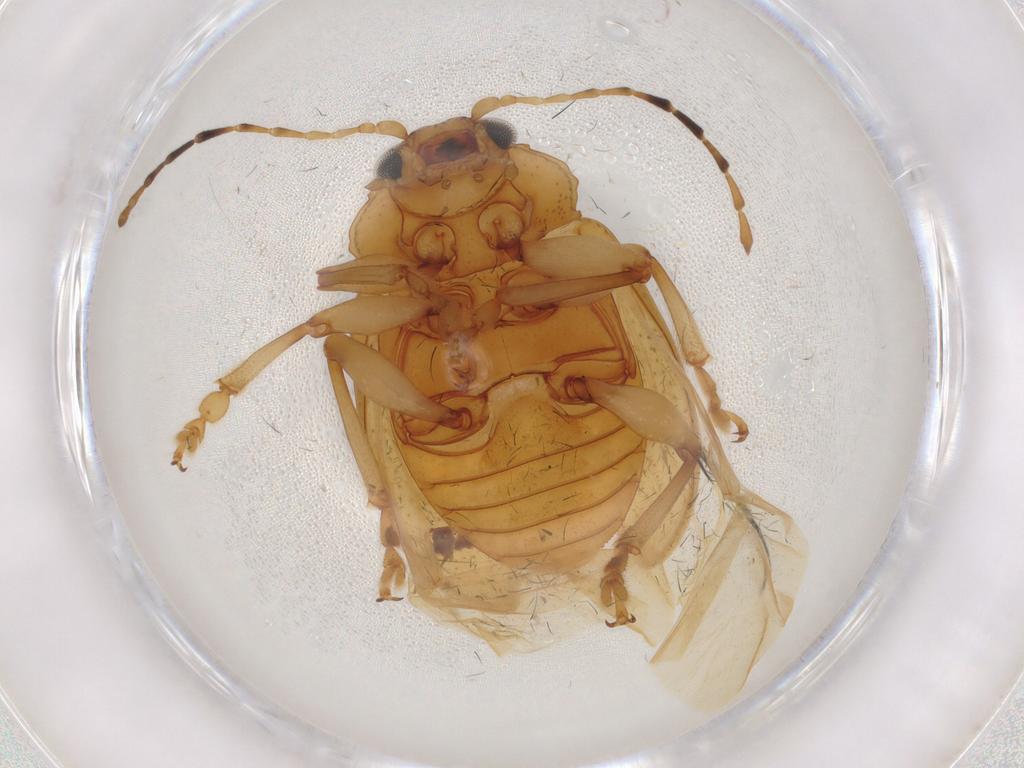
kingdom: Animalia
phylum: Arthropoda
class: Insecta
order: Coleoptera
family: Chrysomelidae
